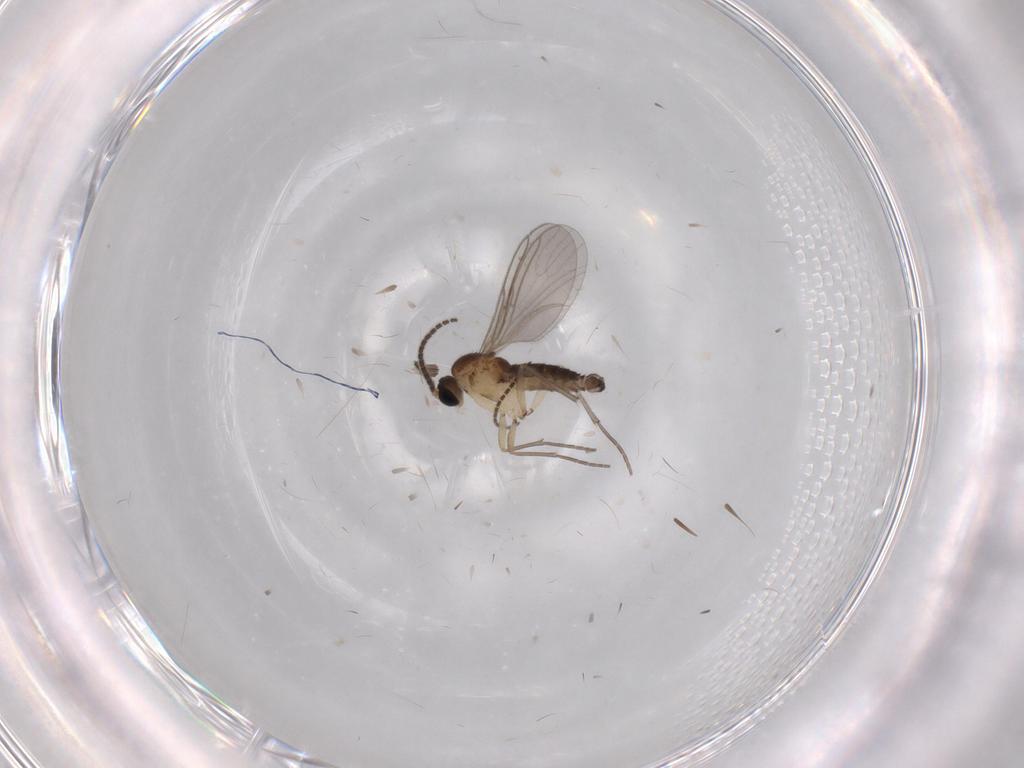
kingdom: Animalia
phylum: Arthropoda
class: Insecta
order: Diptera
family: Sciaridae
